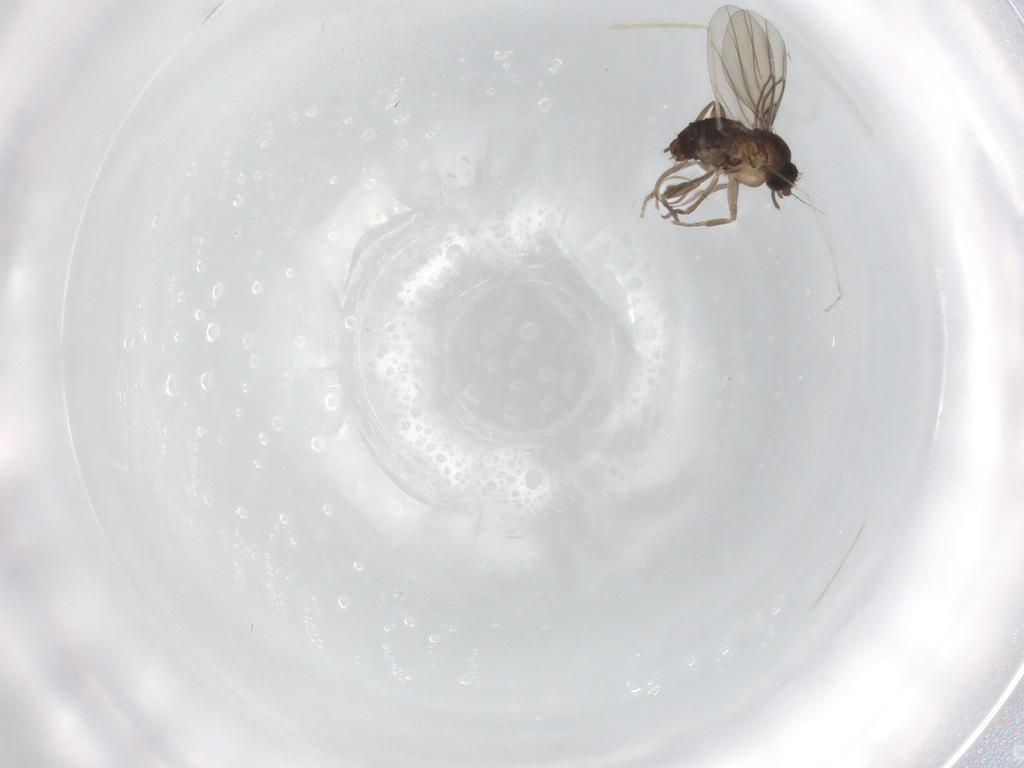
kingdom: Animalia
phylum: Arthropoda
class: Insecta
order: Diptera
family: Cecidomyiidae
